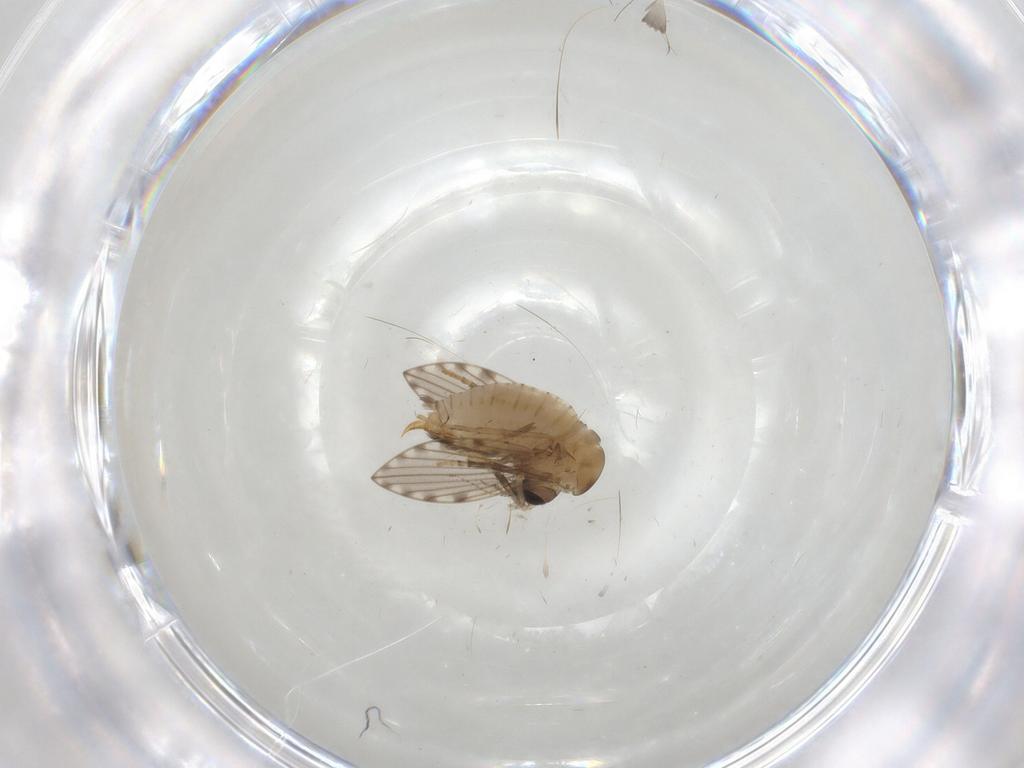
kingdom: Animalia
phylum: Arthropoda
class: Insecta
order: Diptera
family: Psychodidae
